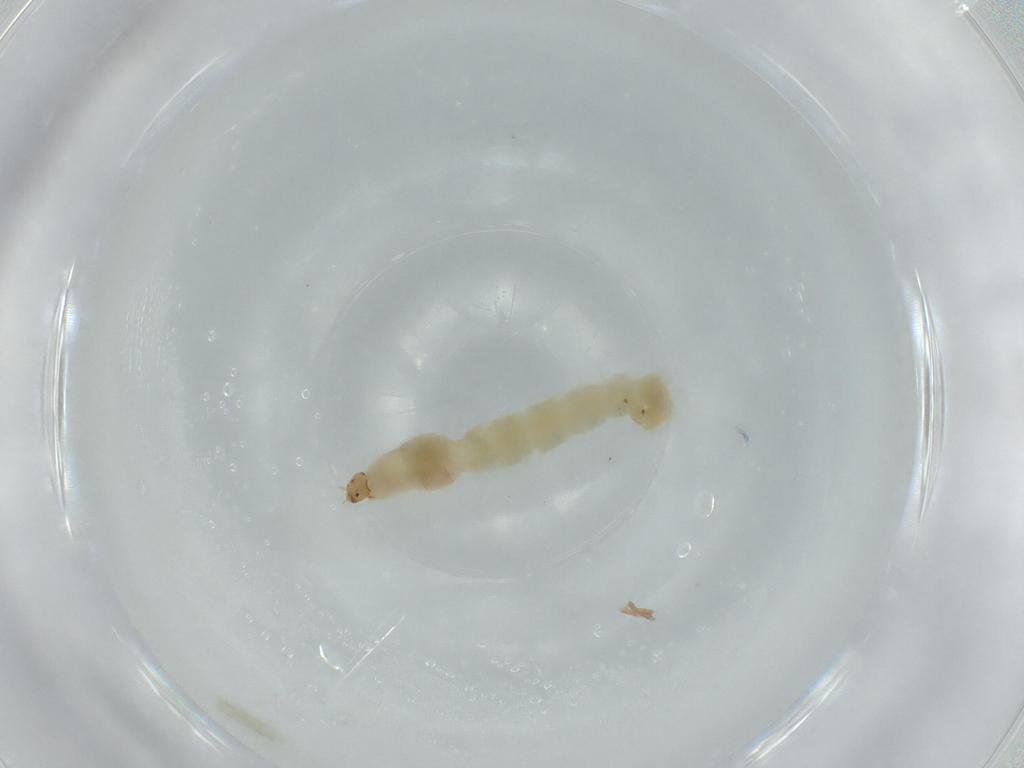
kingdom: Animalia
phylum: Arthropoda
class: Insecta
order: Diptera
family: Chironomidae
